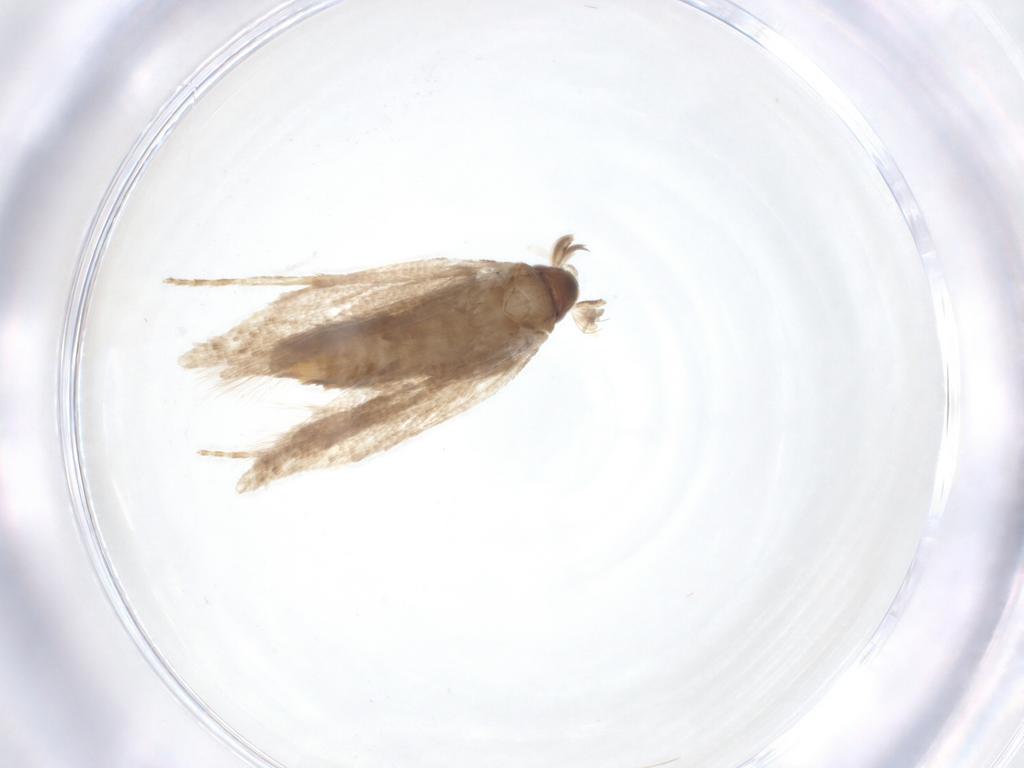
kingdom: Animalia
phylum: Arthropoda
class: Insecta
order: Lepidoptera
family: Gelechiidae
